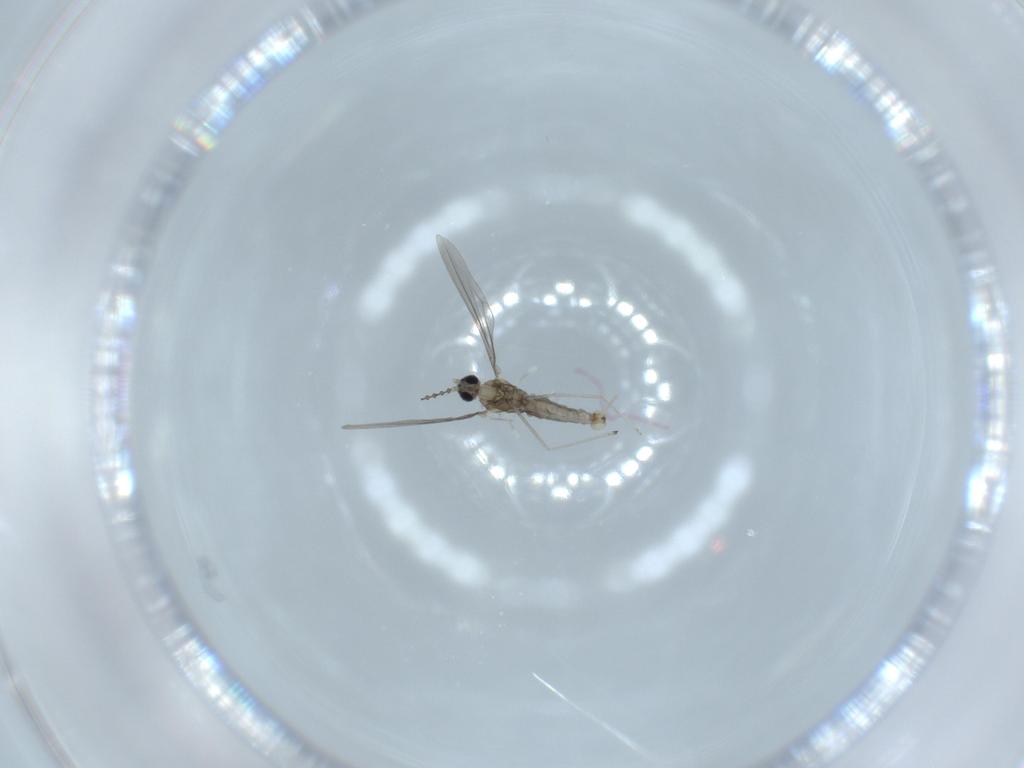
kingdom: Animalia
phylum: Arthropoda
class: Insecta
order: Diptera
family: Cecidomyiidae
